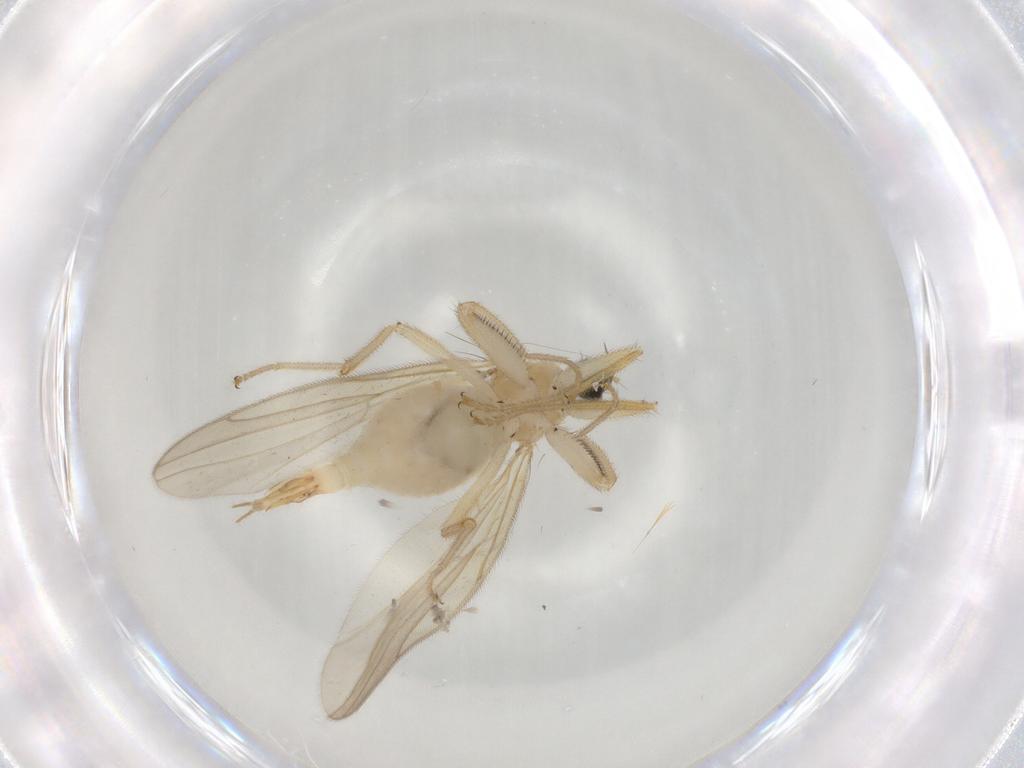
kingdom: Animalia
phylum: Arthropoda
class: Insecta
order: Diptera
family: Hybotidae
